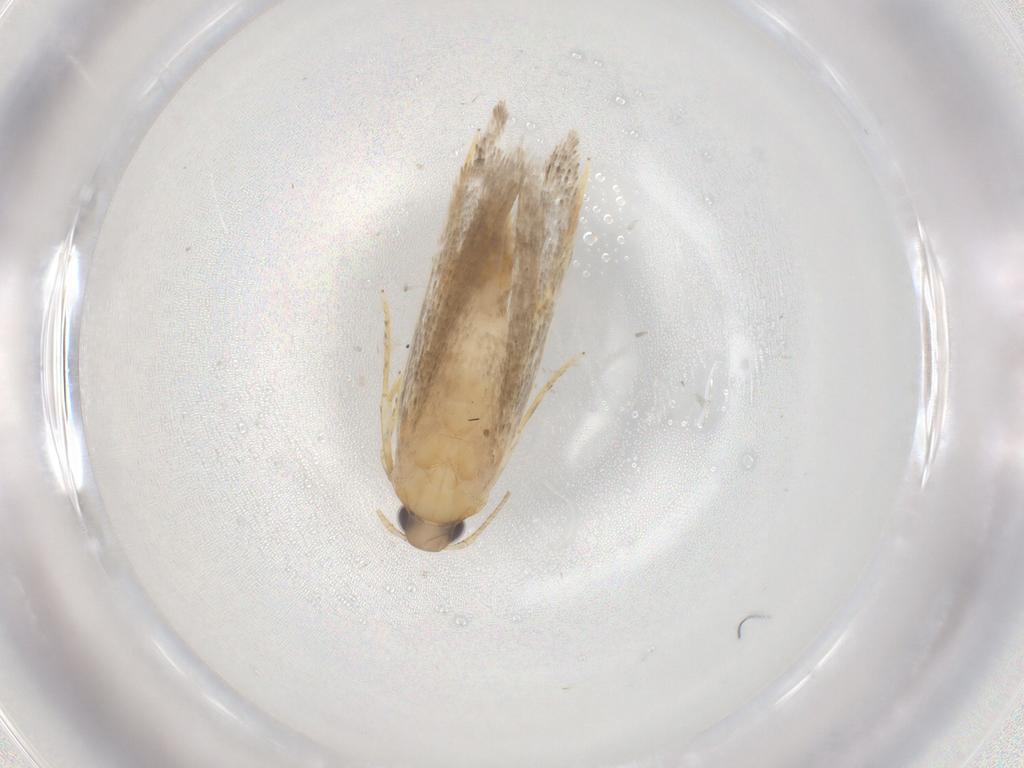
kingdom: Animalia
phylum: Arthropoda
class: Insecta
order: Lepidoptera
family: Autostichidae
